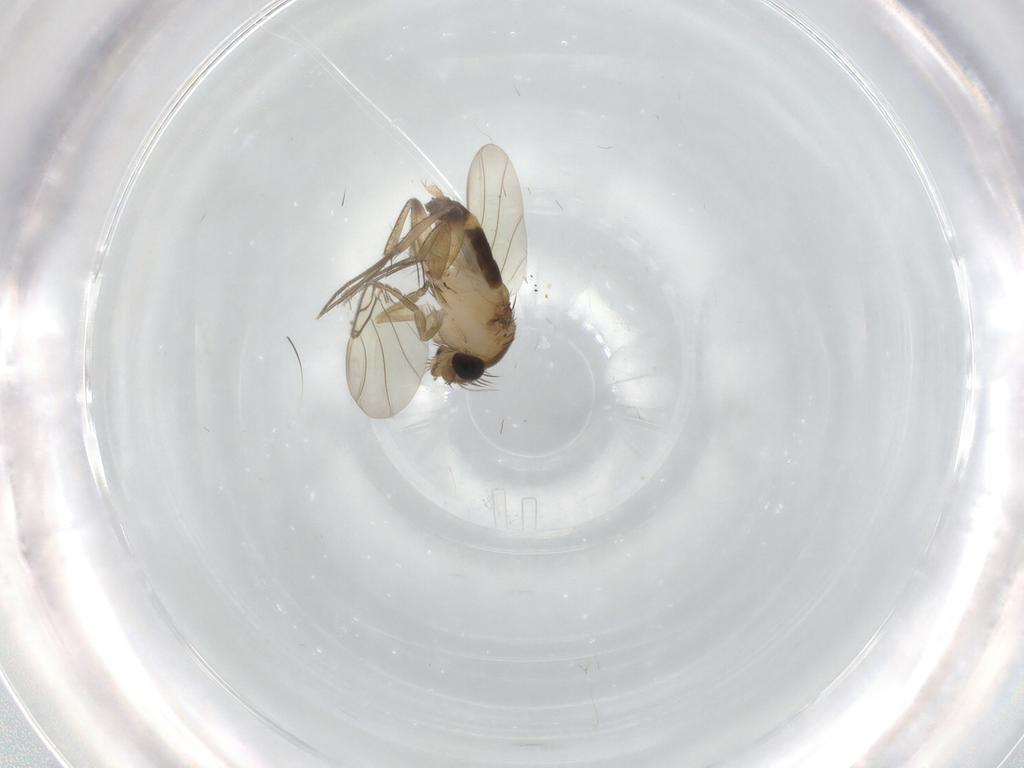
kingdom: Animalia
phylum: Arthropoda
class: Insecta
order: Diptera
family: Chironomidae
